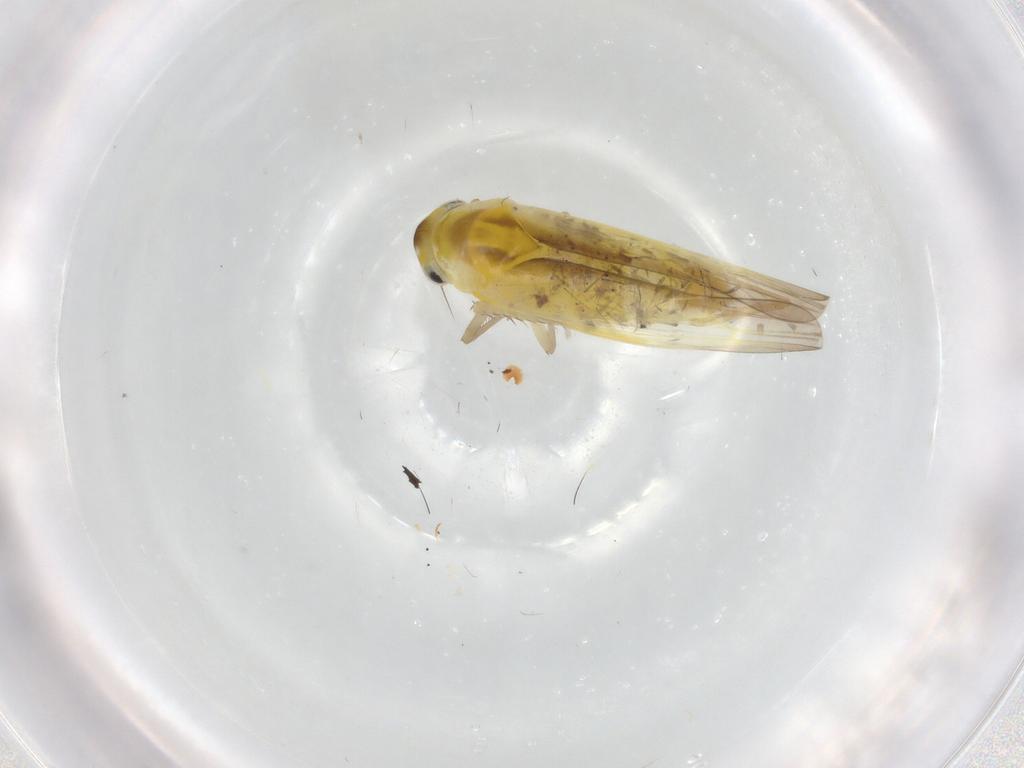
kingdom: Animalia
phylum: Arthropoda
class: Insecta
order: Hemiptera
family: Cicadellidae
